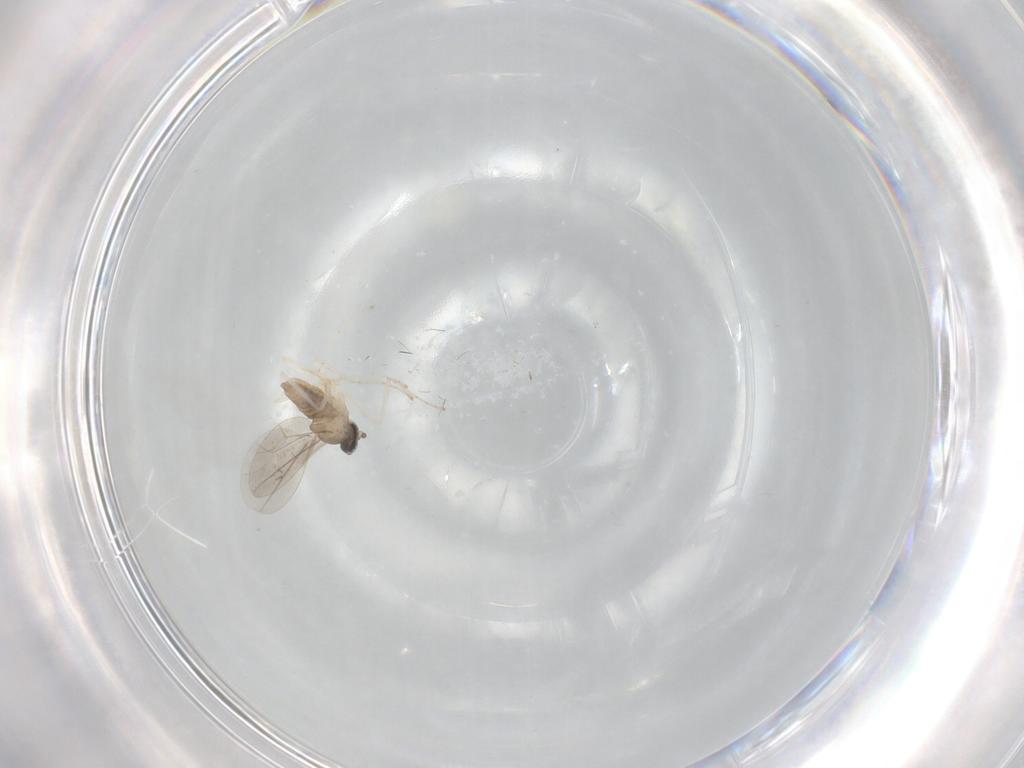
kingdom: Animalia
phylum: Arthropoda
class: Insecta
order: Diptera
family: Cecidomyiidae
